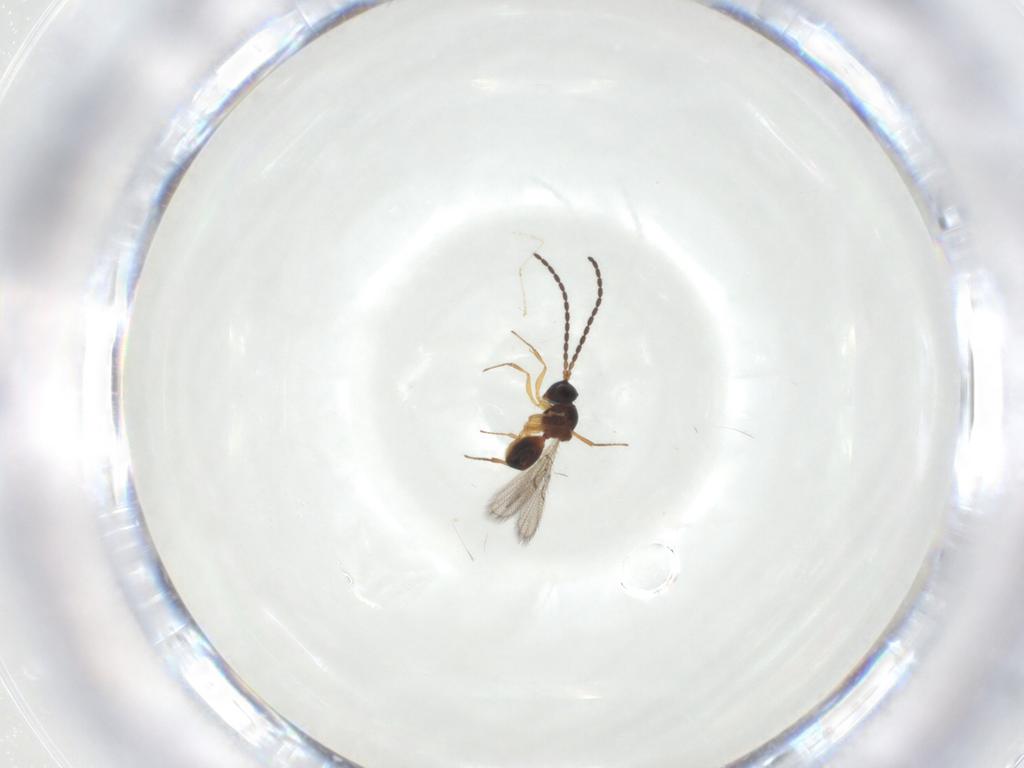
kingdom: Animalia
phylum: Arthropoda
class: Insecta
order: Hymenoptera
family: Figitidae
